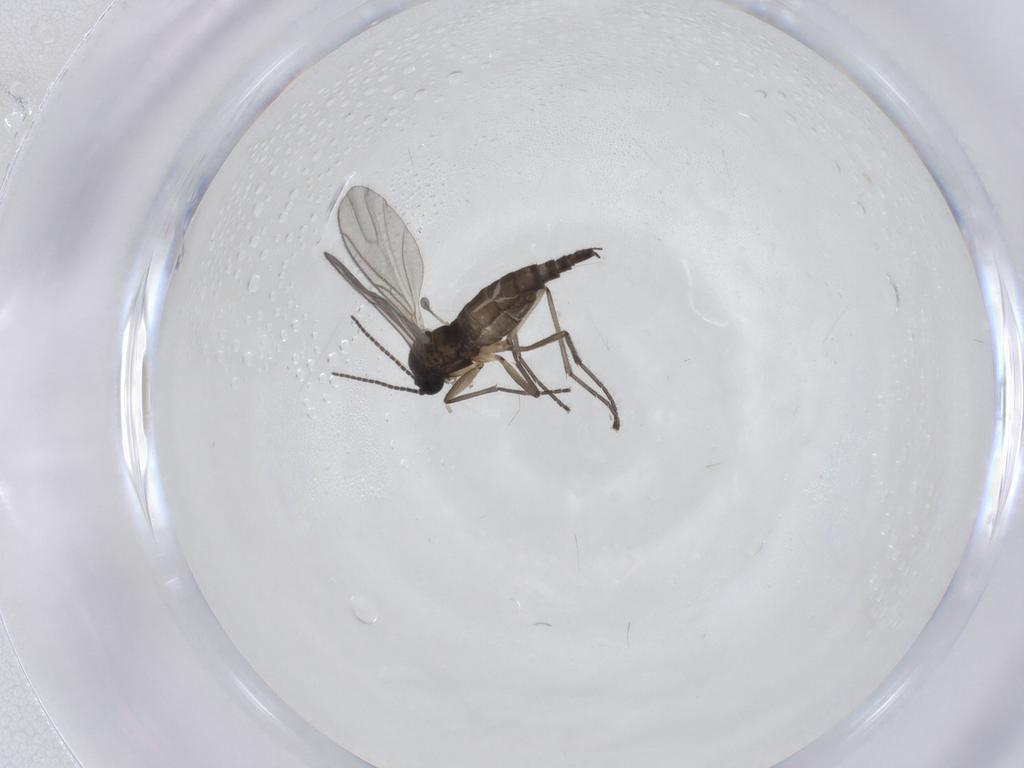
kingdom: Animalia
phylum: Arthropoda
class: Insecta
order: Diptera
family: Sciaridae
